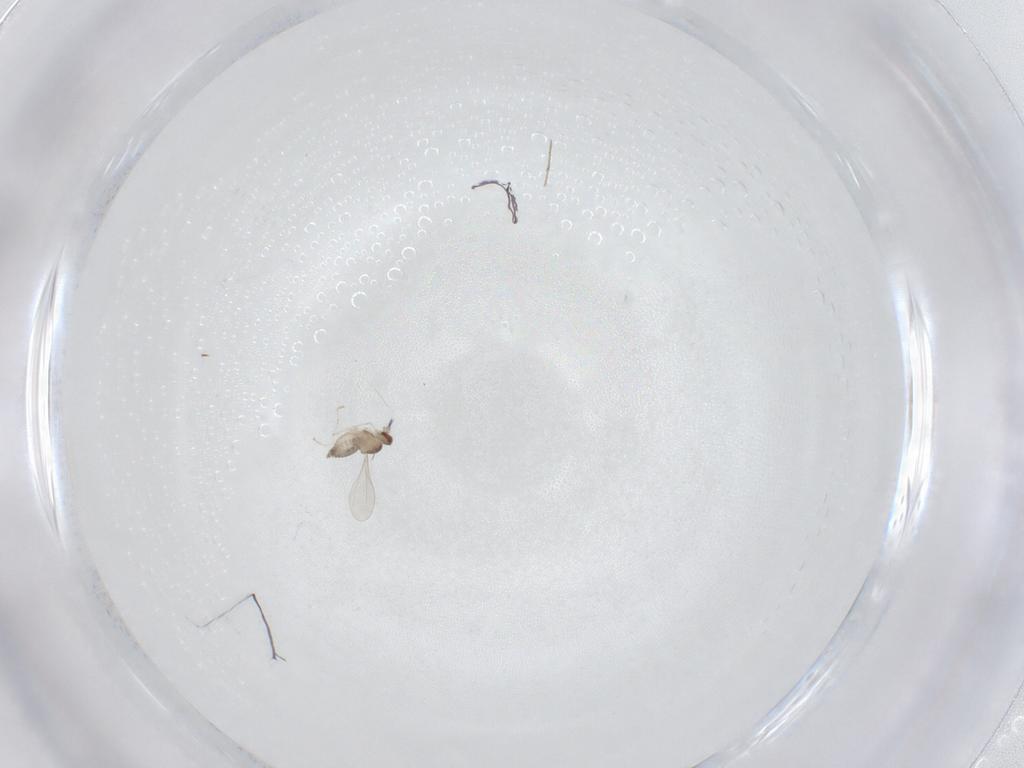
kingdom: Animalia
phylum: Arthropoda
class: Insecta
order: Diptera
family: Cecidomyiidae
